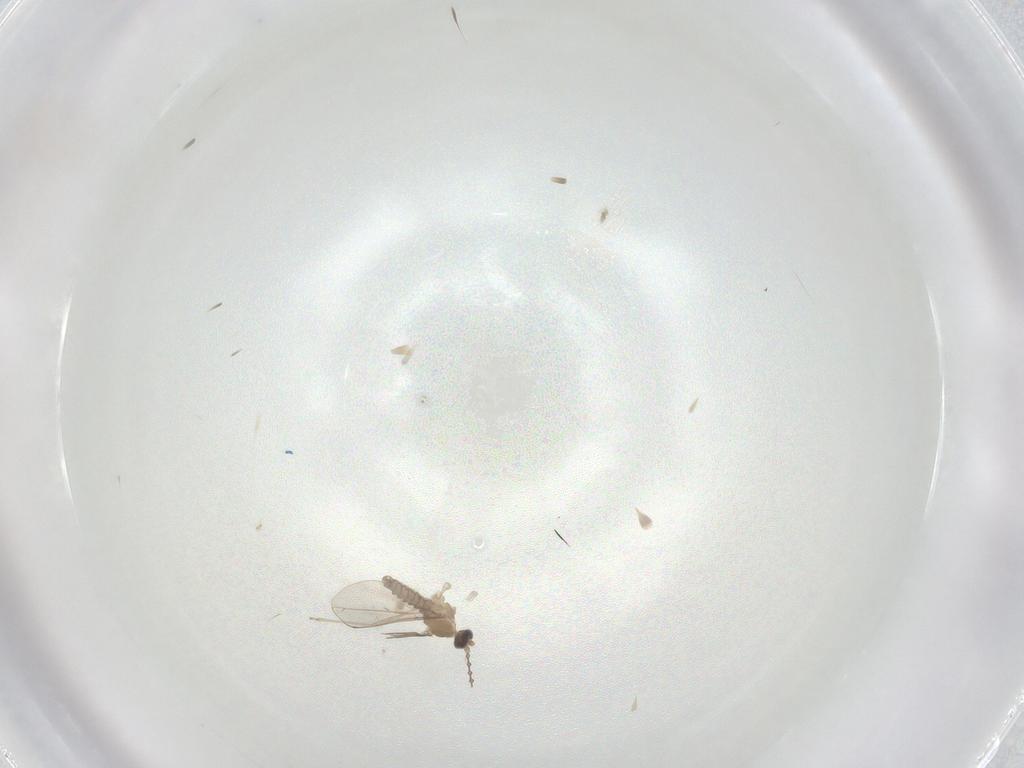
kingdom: Animalia
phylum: Arthropoda
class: Insecta
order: Diptera
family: Cecidomyiidae
